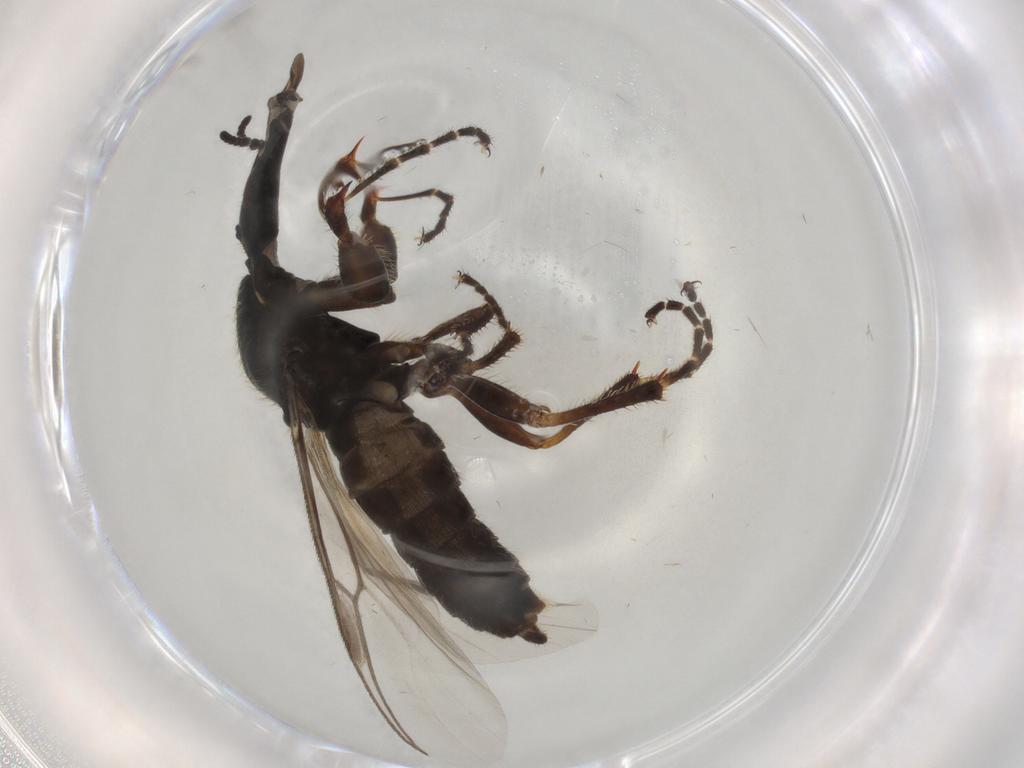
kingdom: Animalia
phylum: Arthropoda
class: Insecta
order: Diptera
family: Bibionidae
